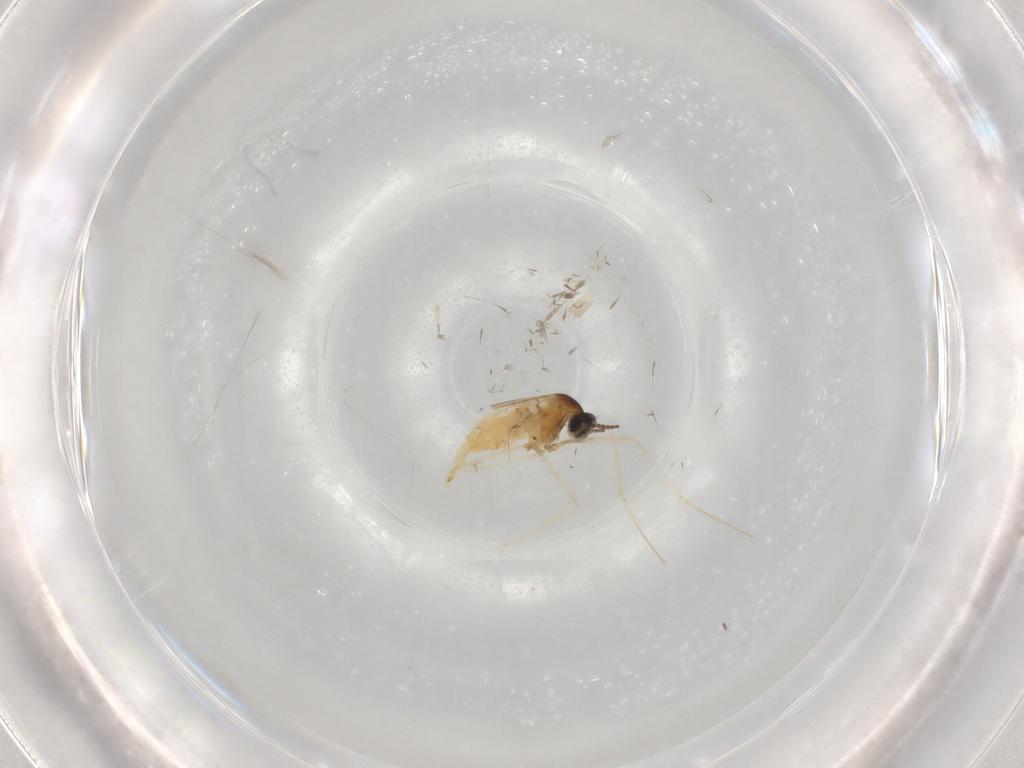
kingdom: Animalia
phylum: Arthropoda
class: Insecta
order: Diptera
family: Cecidomyiidae
